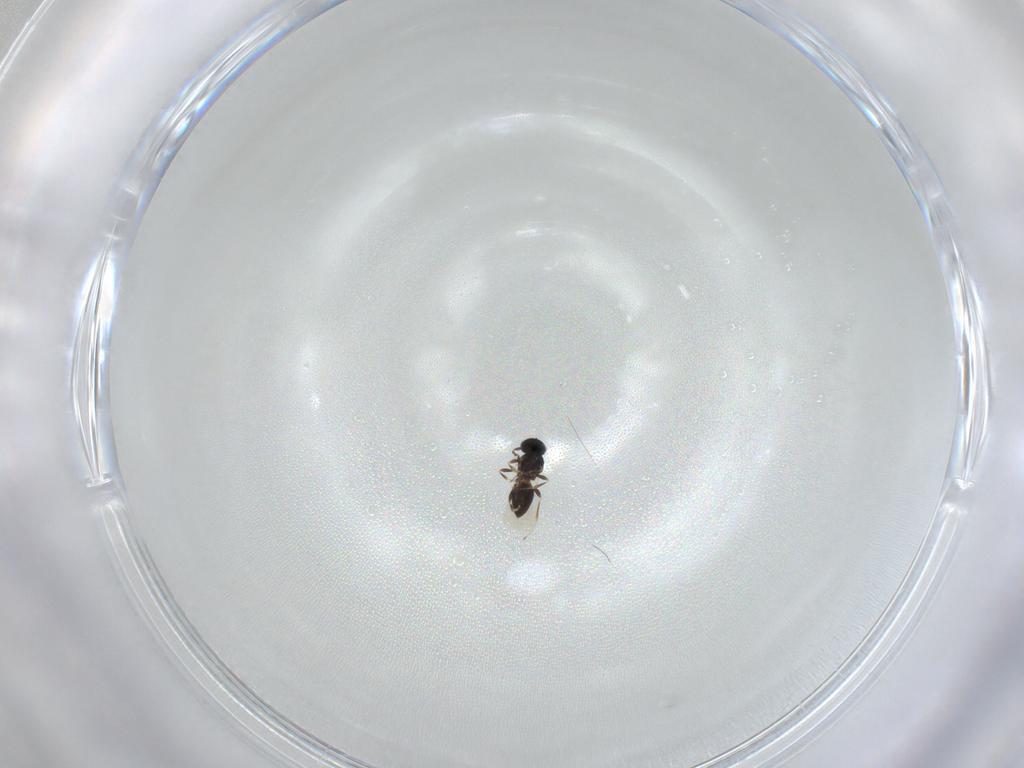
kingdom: Animalia
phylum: Arthropoda
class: Insecta
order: Hymenoptera
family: Platygastridae
